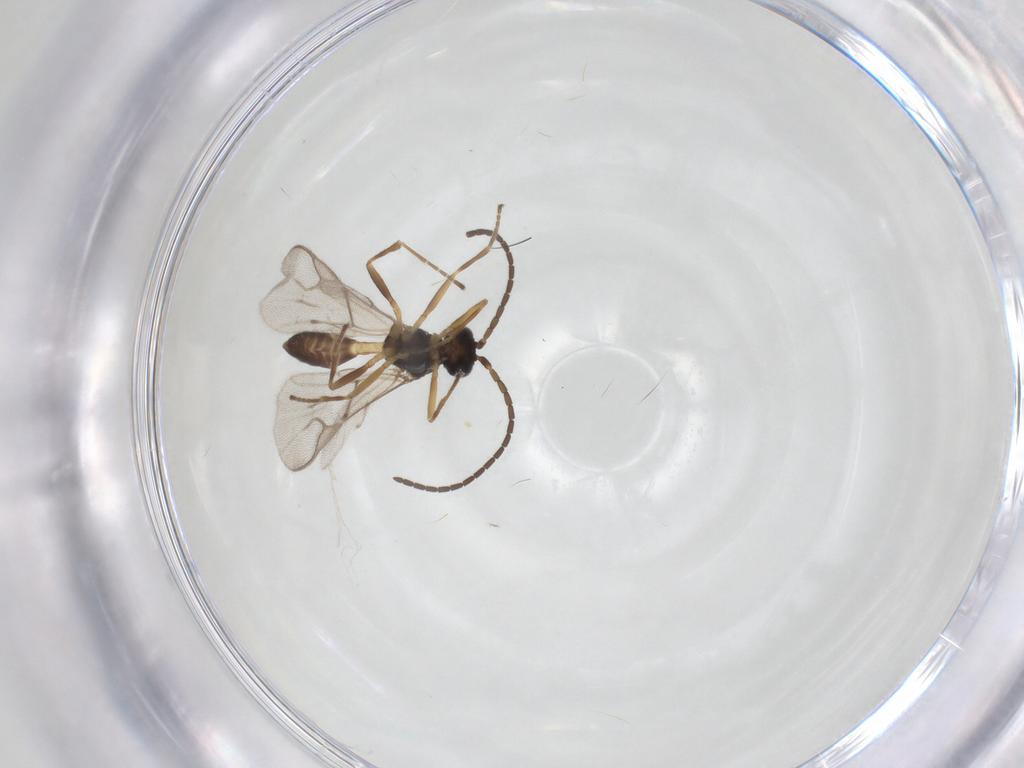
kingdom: Animalia
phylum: Arthropoda
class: Insecta
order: Hymenoptera
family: Braconidae
